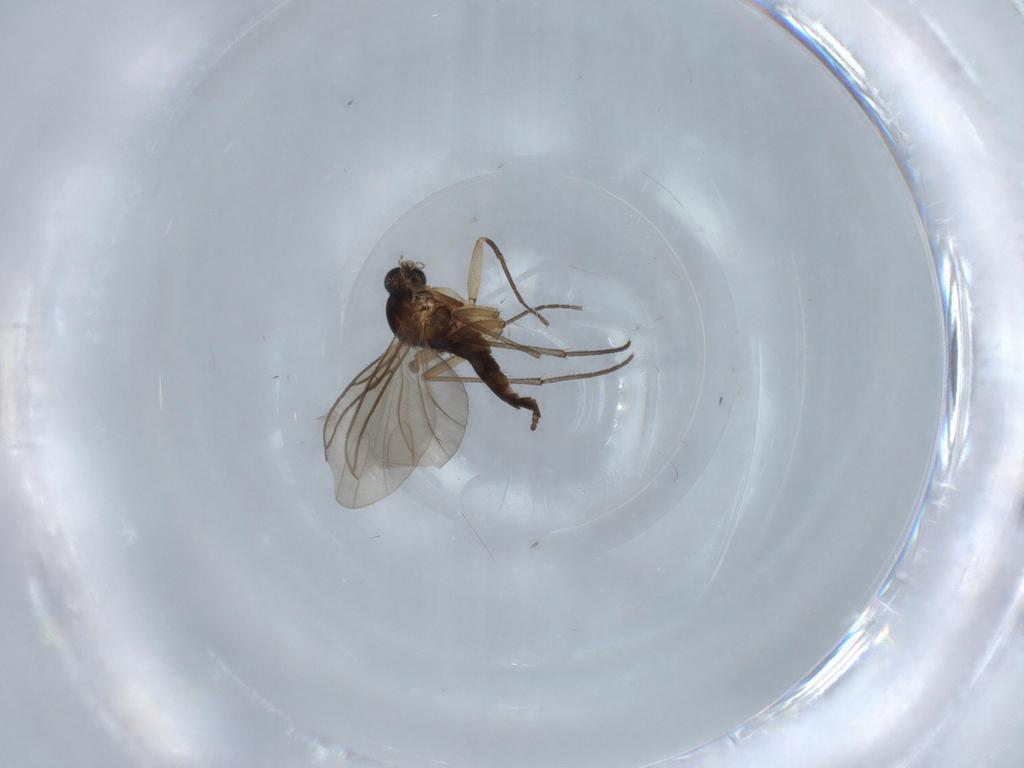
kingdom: Animalia
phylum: Arthropoda
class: Insecta
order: Diptera
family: Sciaridae
